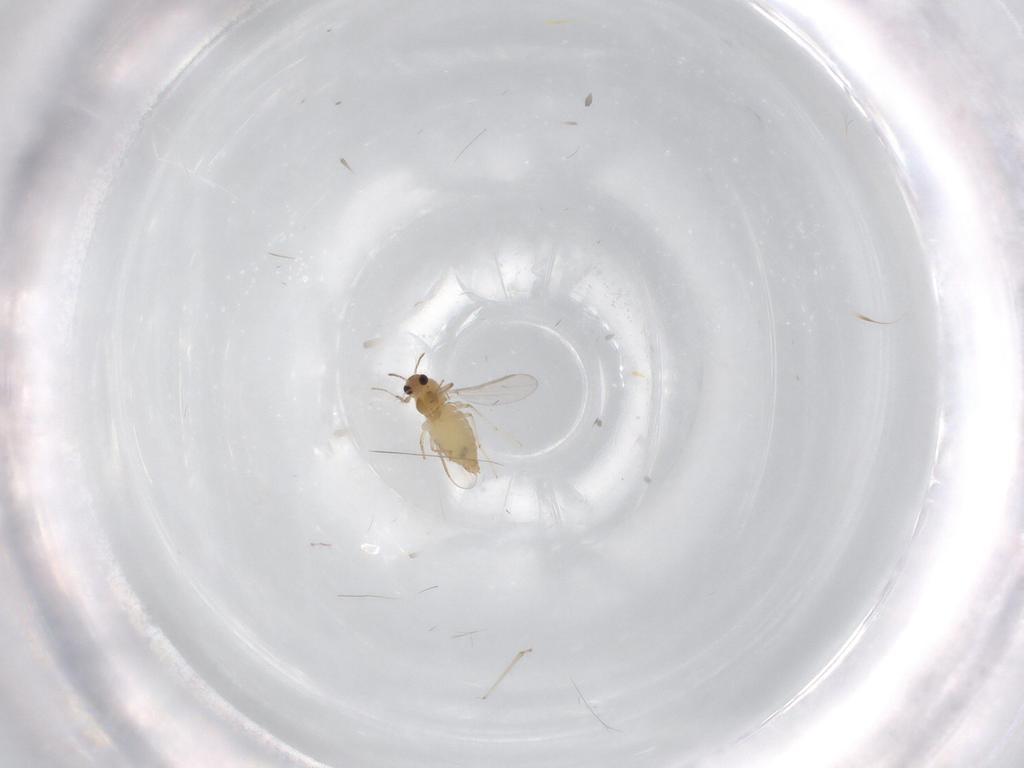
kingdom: Animalia
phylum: Arthropoda
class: Insecta
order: Diptera
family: Chironomidae
